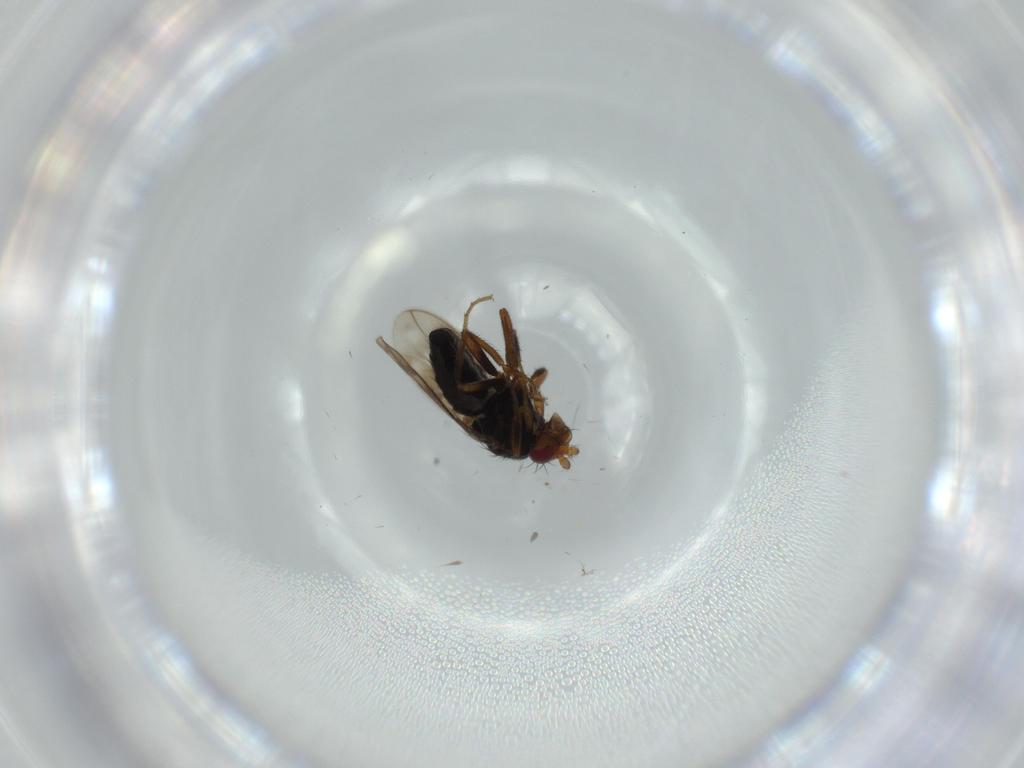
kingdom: Animalia
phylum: Arthropoda
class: Insecta
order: Diptera
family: Sphaeroceridae
